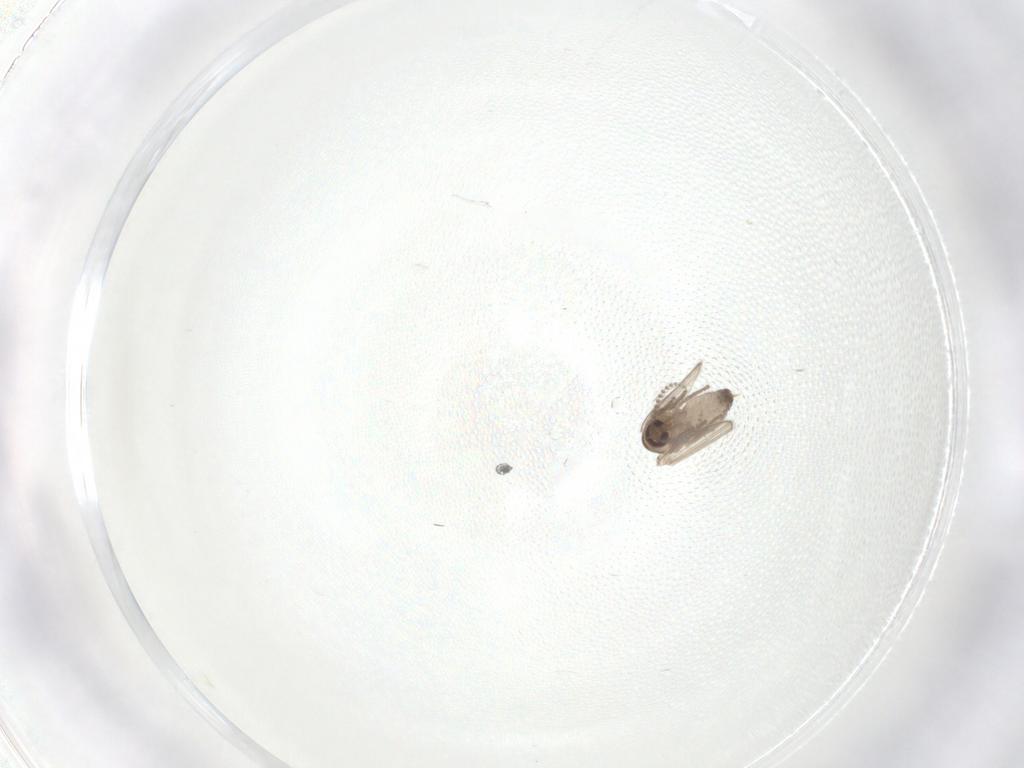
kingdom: Animalia
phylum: Arthropoda
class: Insecta
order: Diptera
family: Psychodidae
